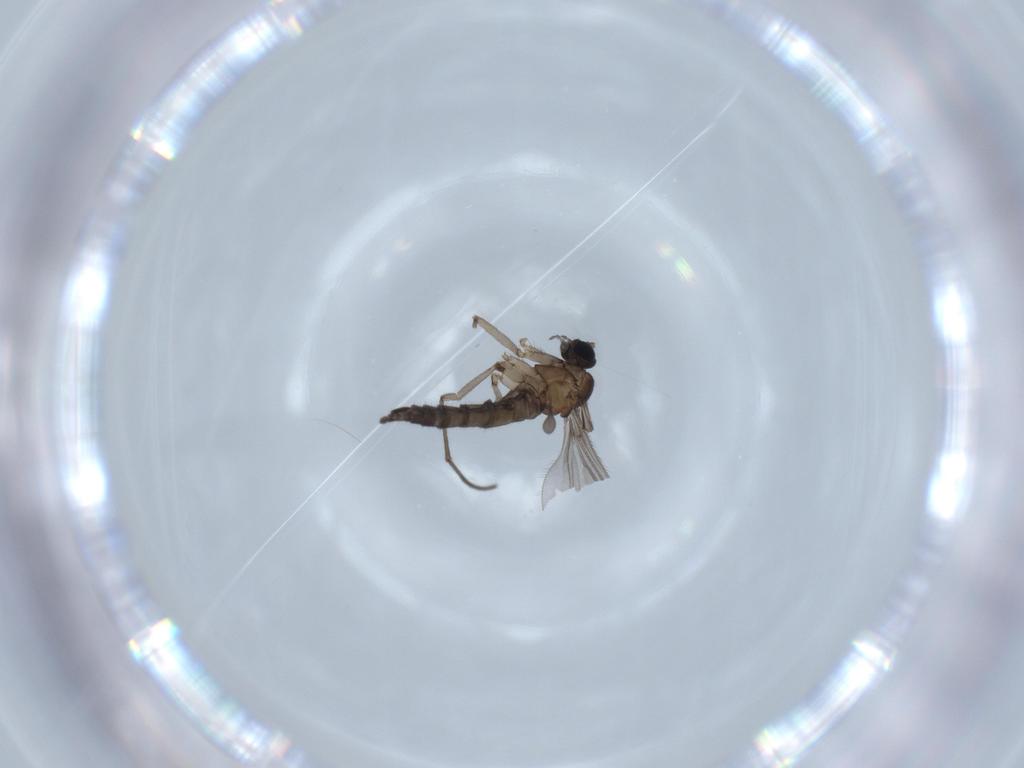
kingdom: Animalia
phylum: Arthropoda
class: Insecta
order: Diptera
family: Sciaridae
